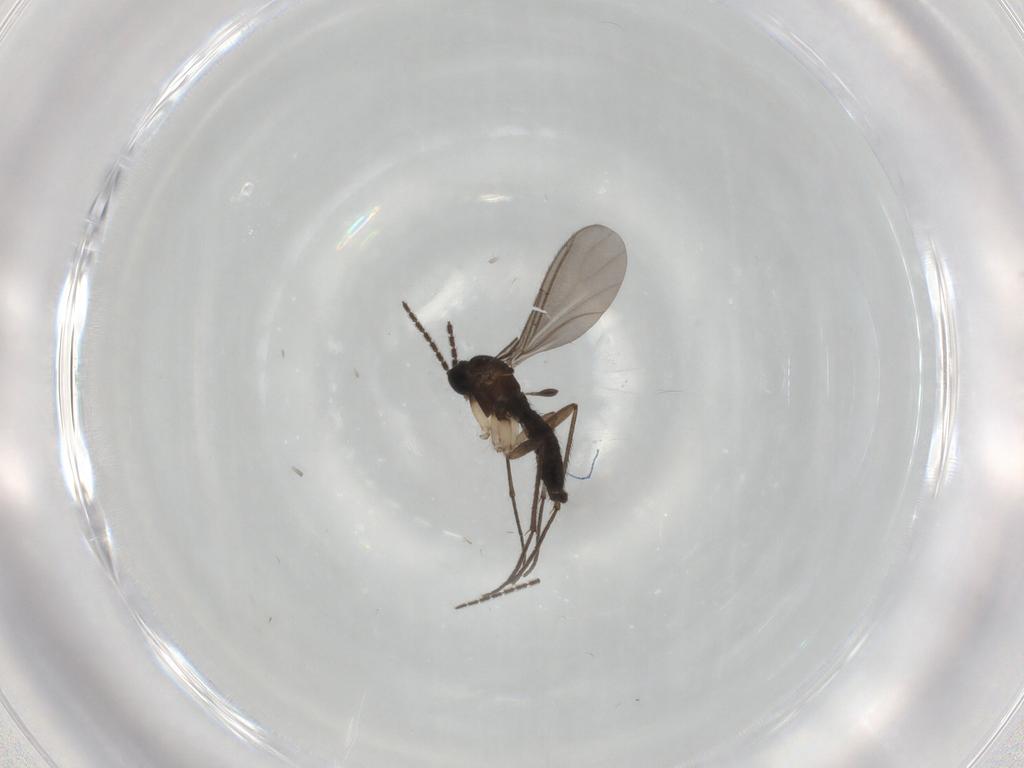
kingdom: Animalia
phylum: Arthropoda
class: Insecta
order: Diptera
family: Sciaridae
